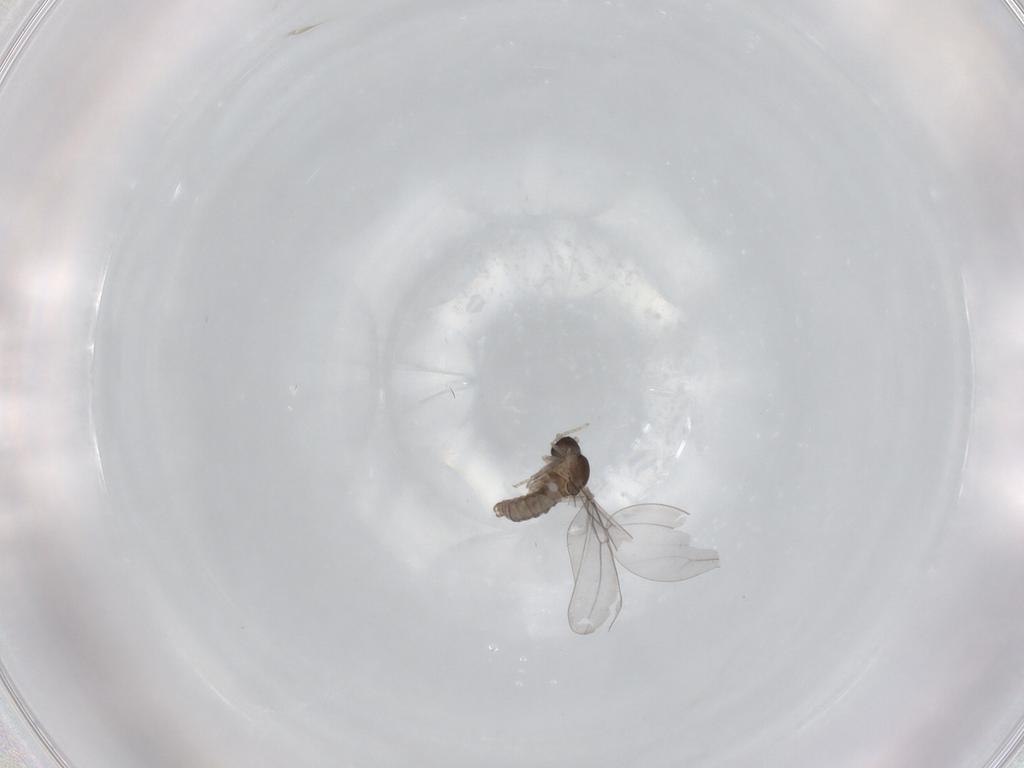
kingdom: Animalia
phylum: Arthropoda
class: Insecta
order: Diptera
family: Cecidomyiidae
